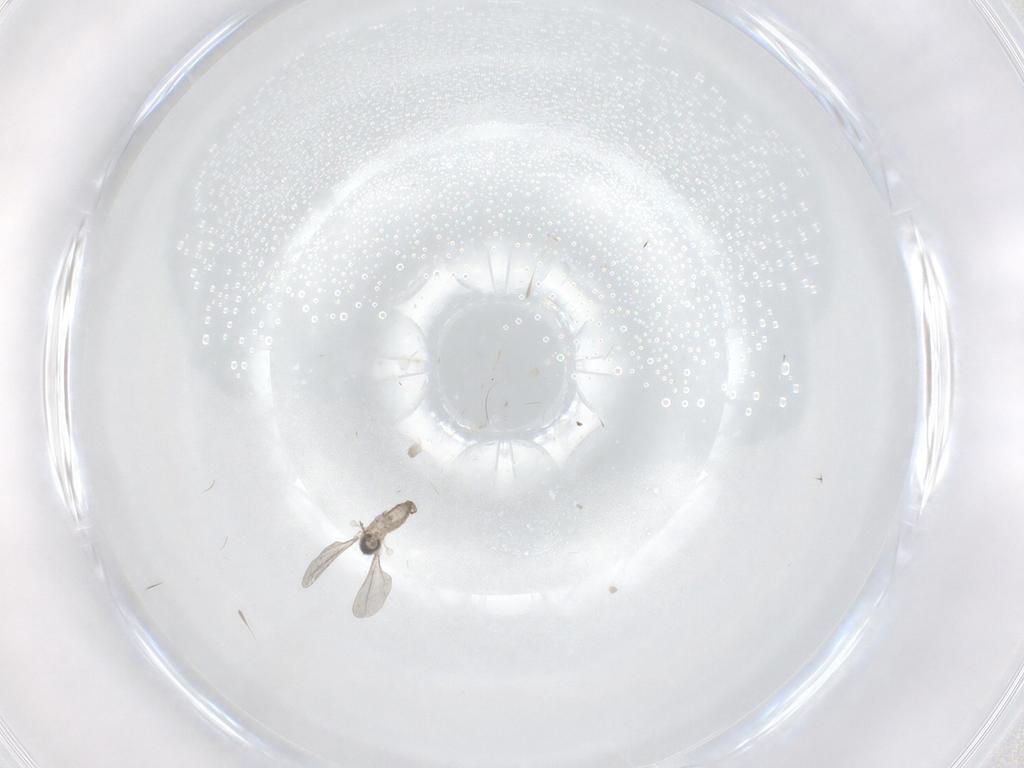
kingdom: Animalia
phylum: Arthropoda
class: Insecta
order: Diptera
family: Cecidomyiidae
